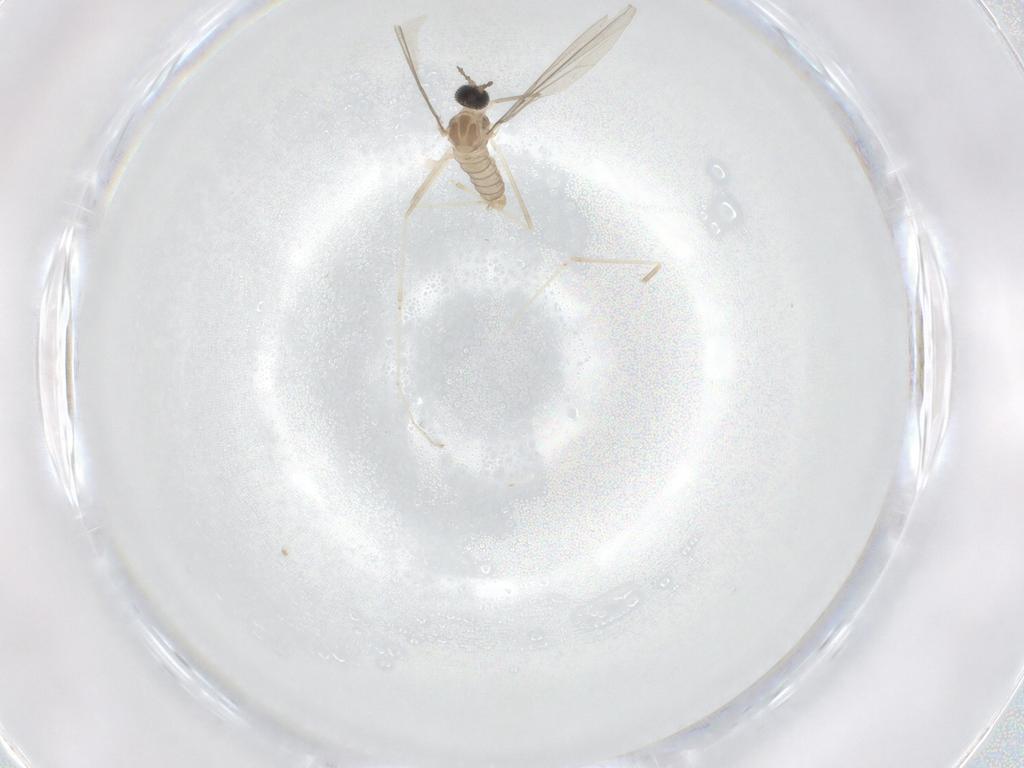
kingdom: Animalia
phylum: Arthropoda
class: Insecta
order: Diptera
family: Cecidomyiidae
